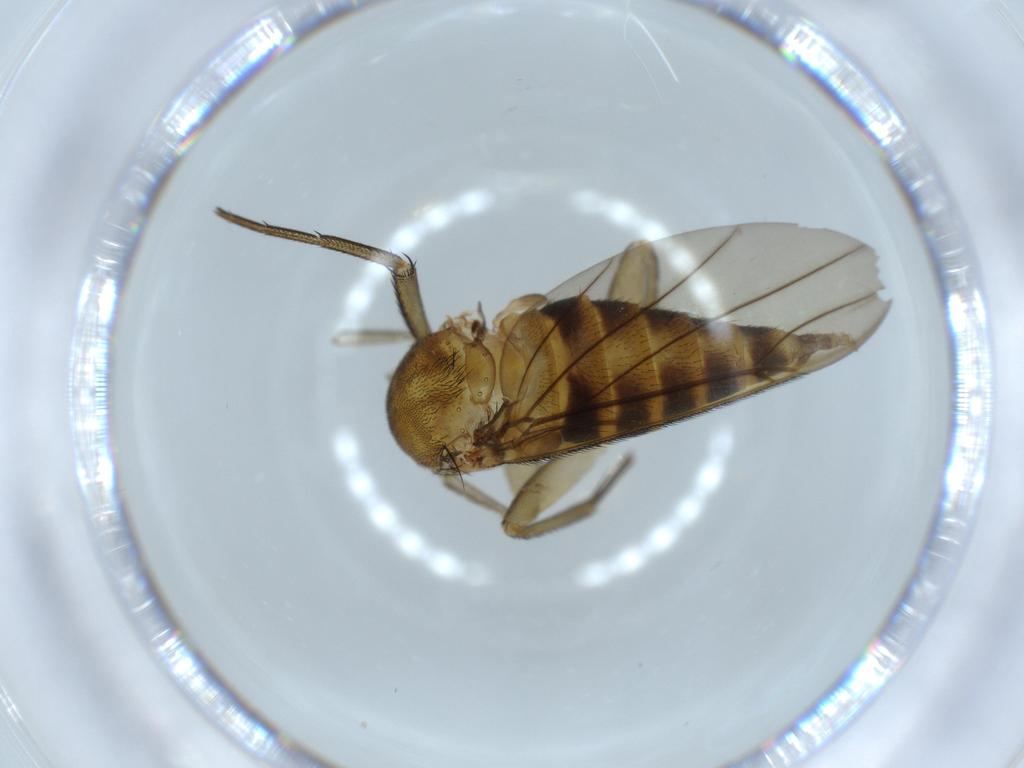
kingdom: Animalia
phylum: Arthropoda
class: Insecta
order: Diptera
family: Phoridae
